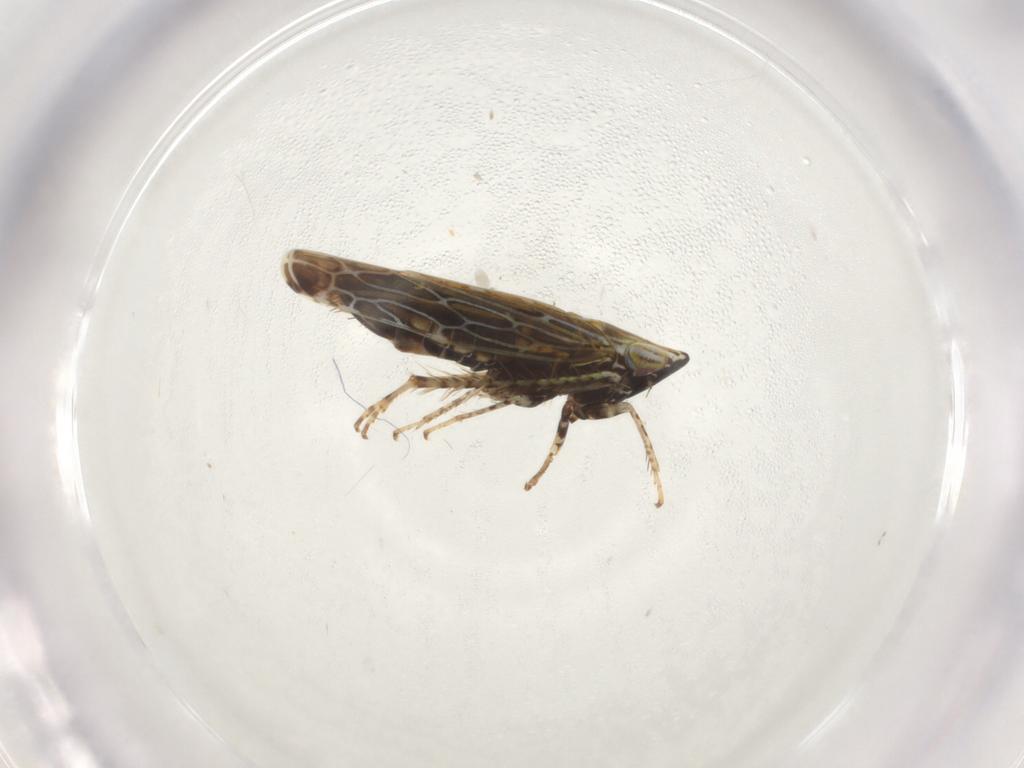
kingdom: Animalia
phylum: Arthropoda
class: Insecta
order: Hemiptera
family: Cicadellidae
